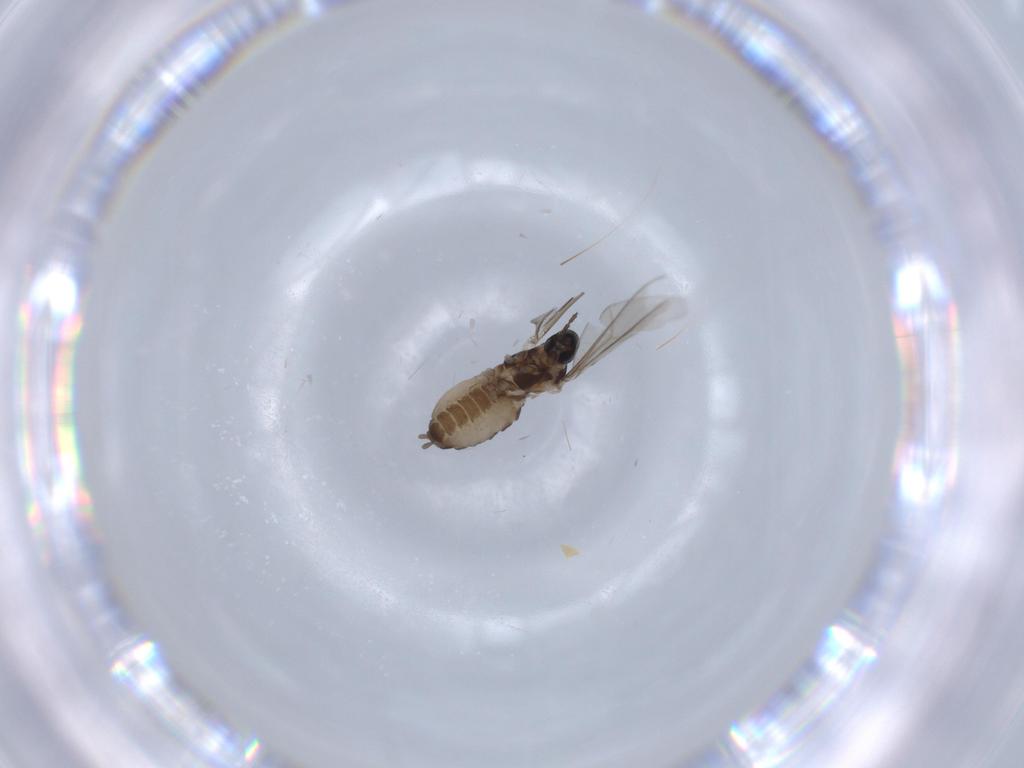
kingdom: Animalia
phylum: Arthropoda
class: Insecta
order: Diptera
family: Cecidomyiidae
